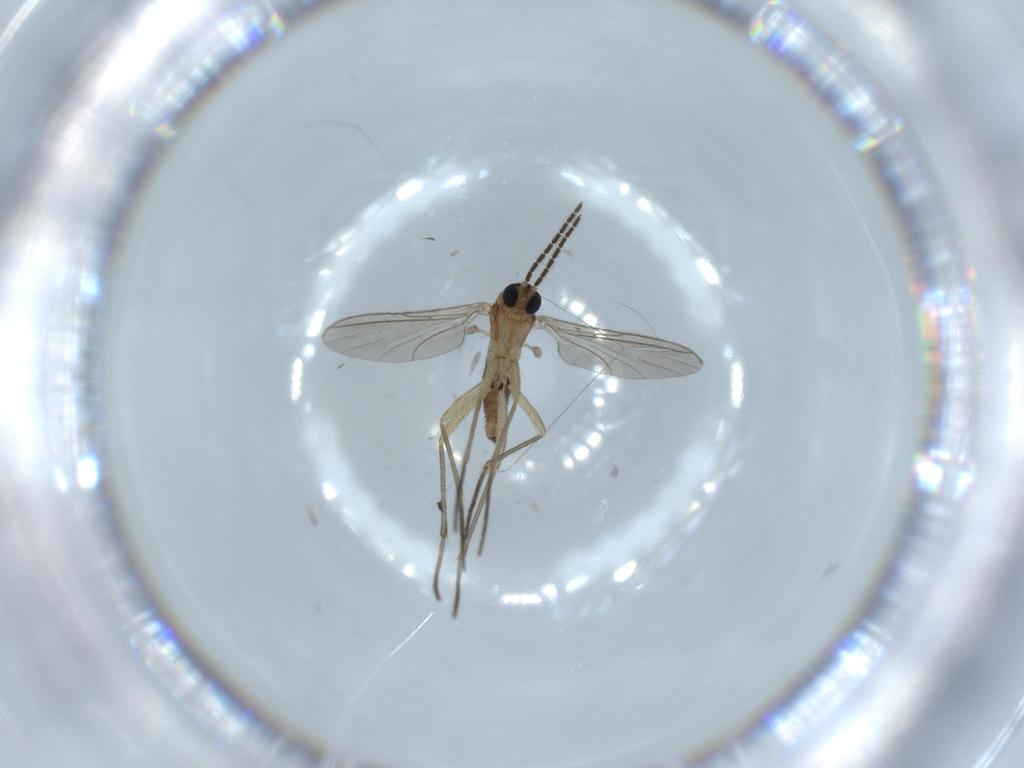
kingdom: Animalia
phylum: Arthropoda
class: Insecta
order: Diptera
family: Sciaridae
